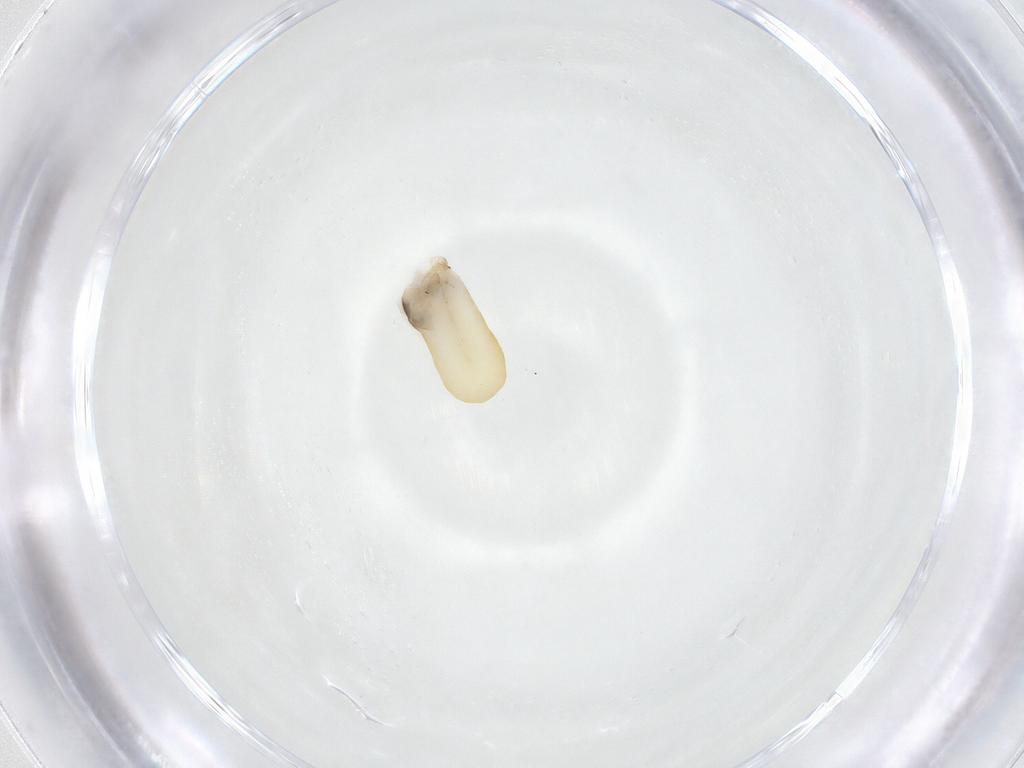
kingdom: Animalia
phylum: Arthropoda
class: Insecta
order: Hymenoptera
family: Dryinidae
